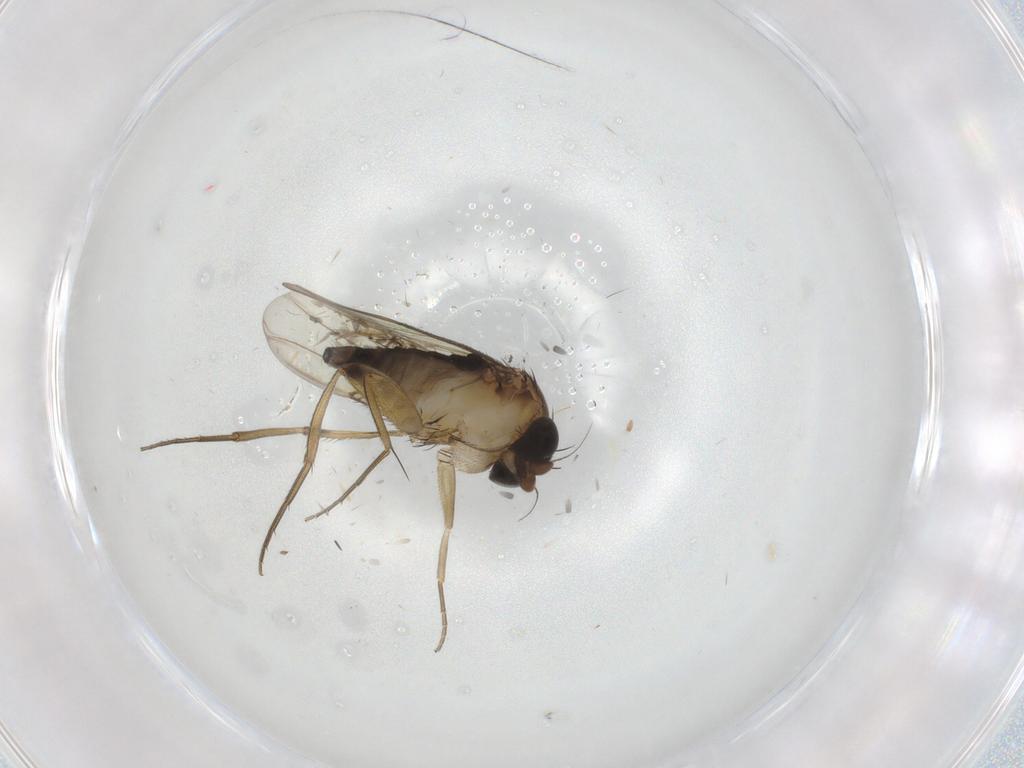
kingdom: Animalia
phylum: Arthropoda
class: Insecta
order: Diptera
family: Phoridae
